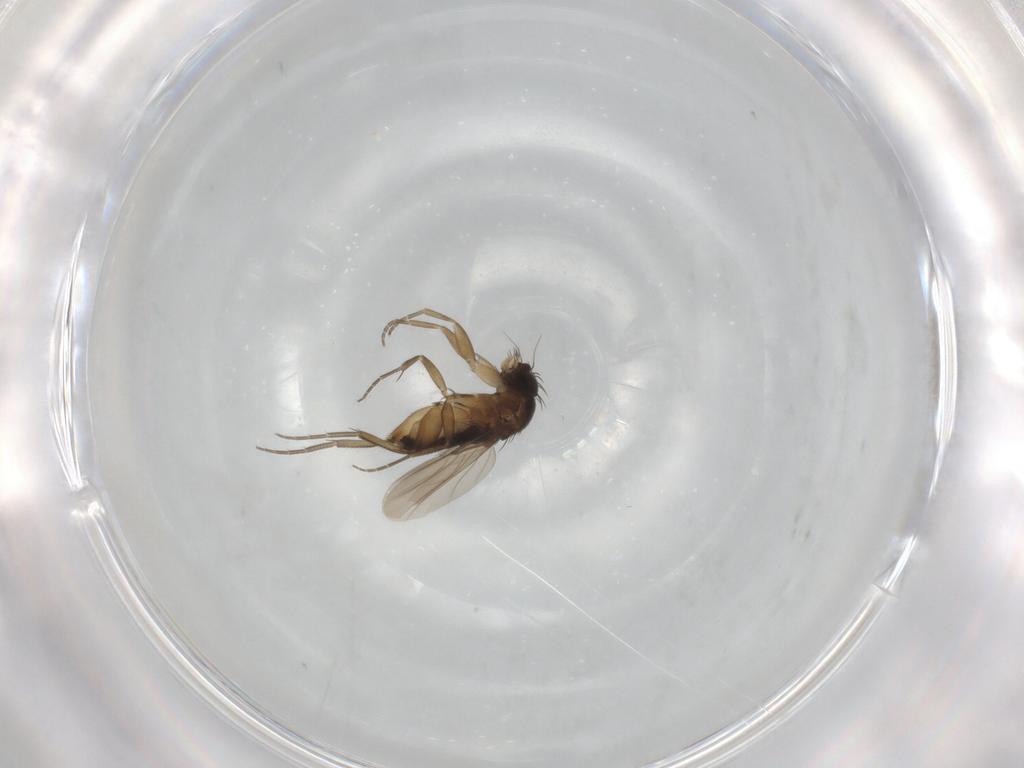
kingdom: Animalia
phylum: Arthropoda
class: Insecta
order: Diptera
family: Phoridae
